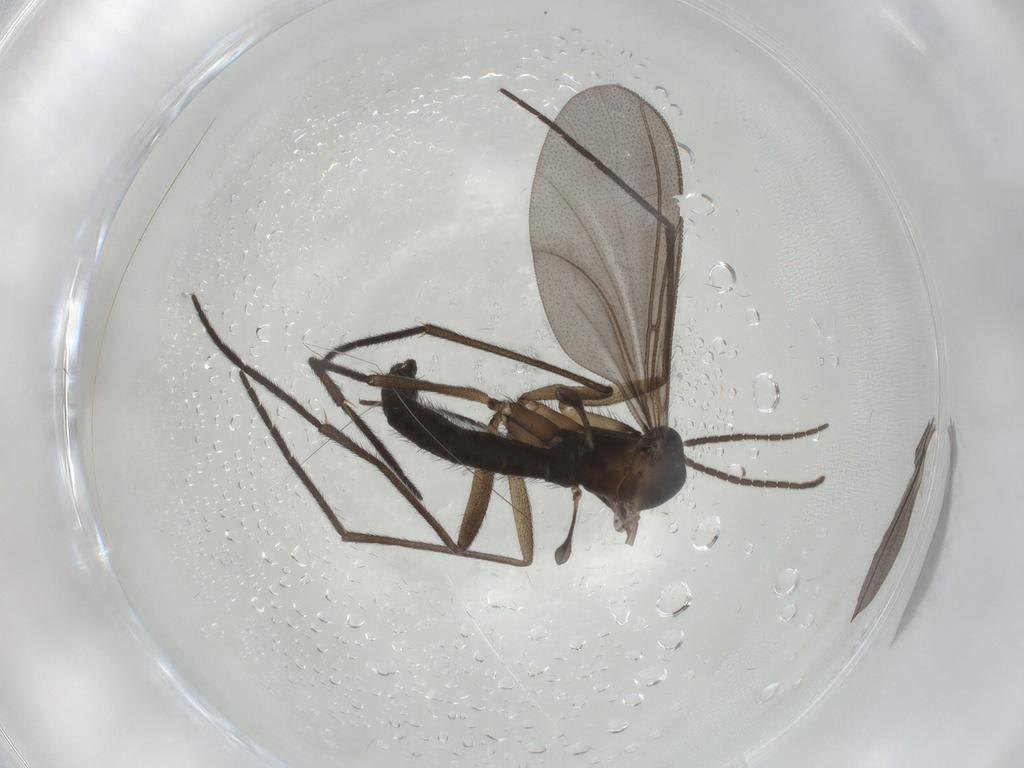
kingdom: Animalia
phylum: Arthropoda
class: Insecta
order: Diptera
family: Sciaridae
